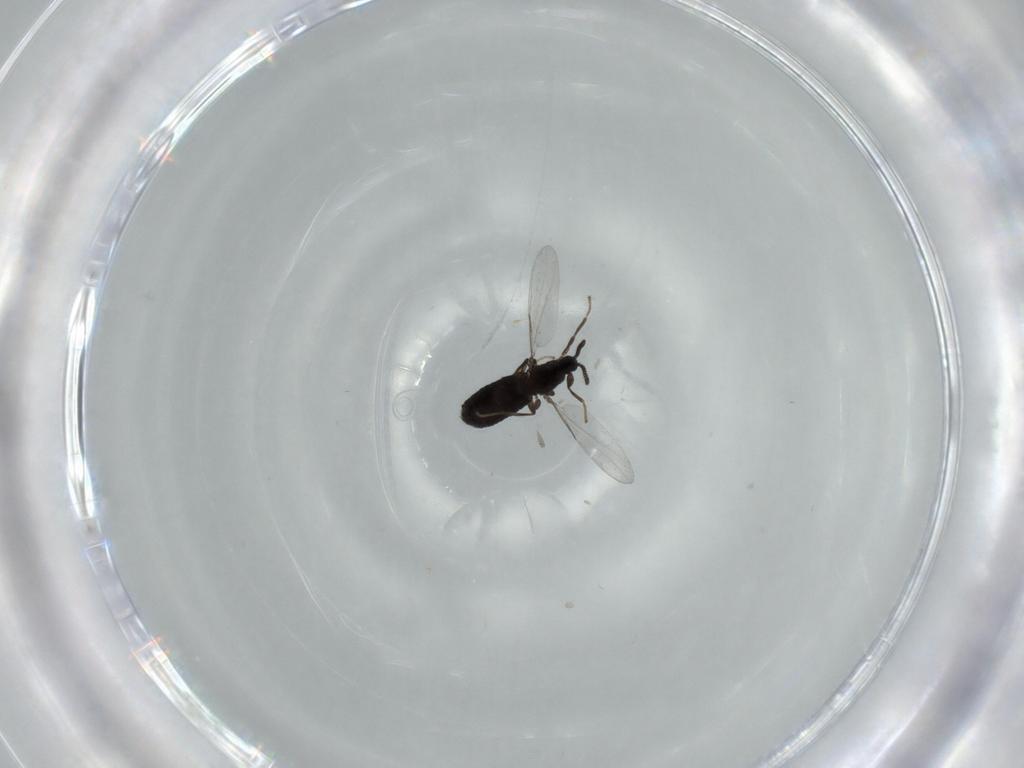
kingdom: Animalia
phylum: Arthropoda
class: Insecta
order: Diptera
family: Scatopsidae
